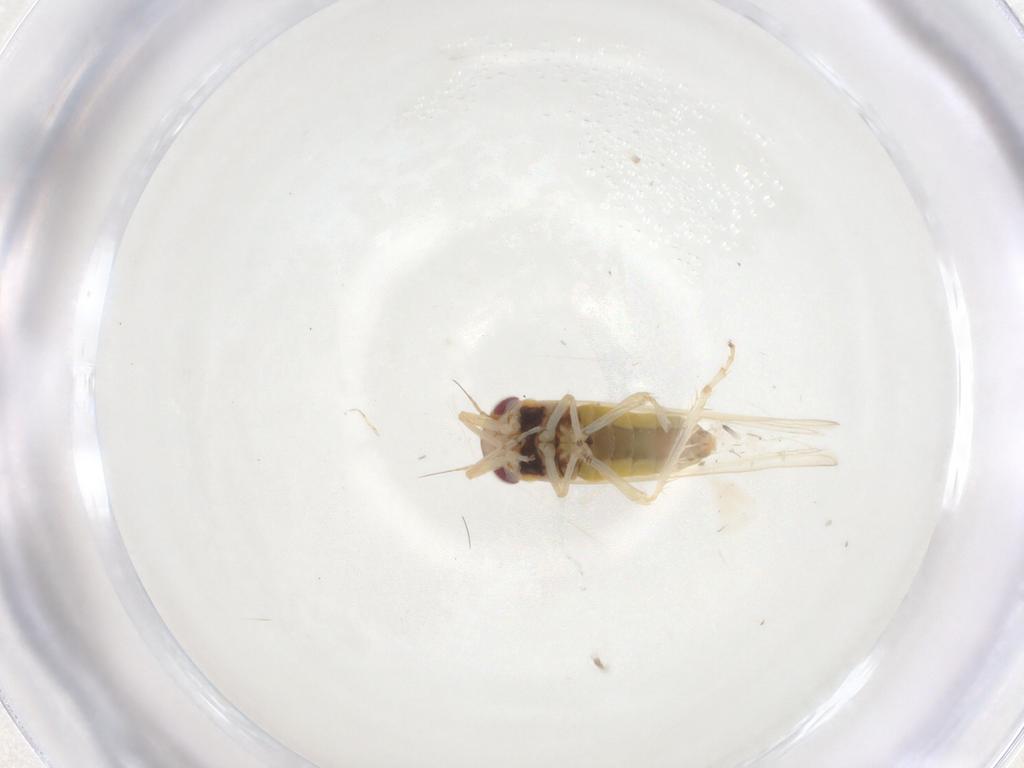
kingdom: Animalia
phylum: Arthropoda
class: Insecta
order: Hemiptera
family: Cicadellidae
